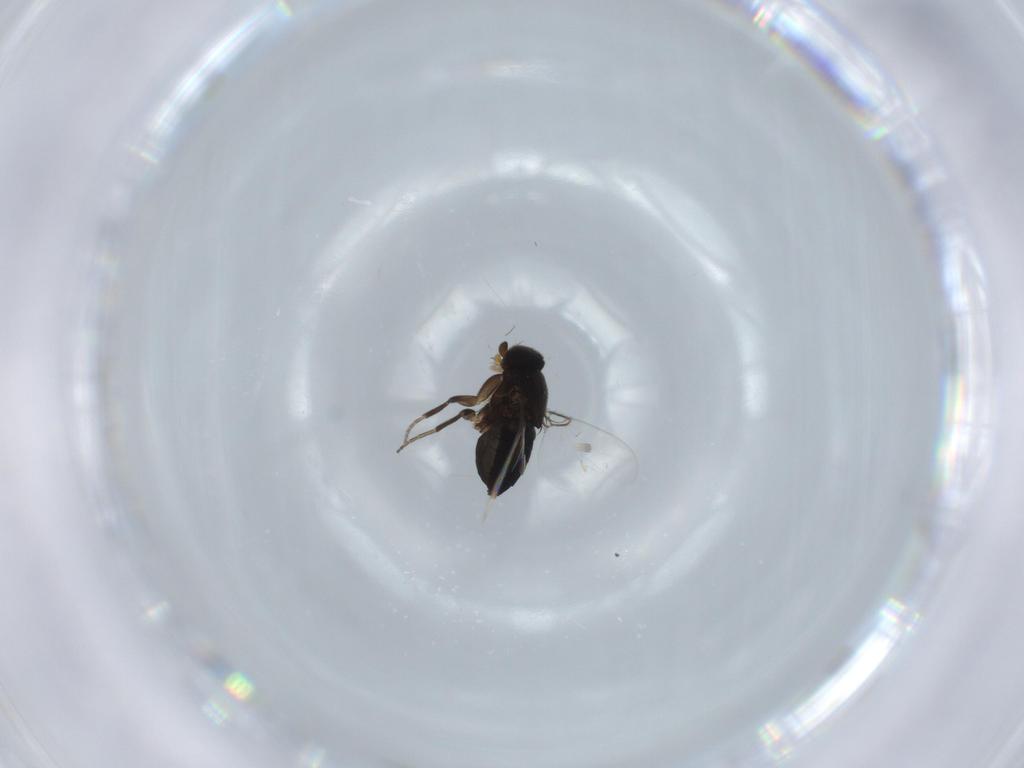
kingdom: Animalia
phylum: Arthropoda
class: Insecta
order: Diptera
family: Phoridae
